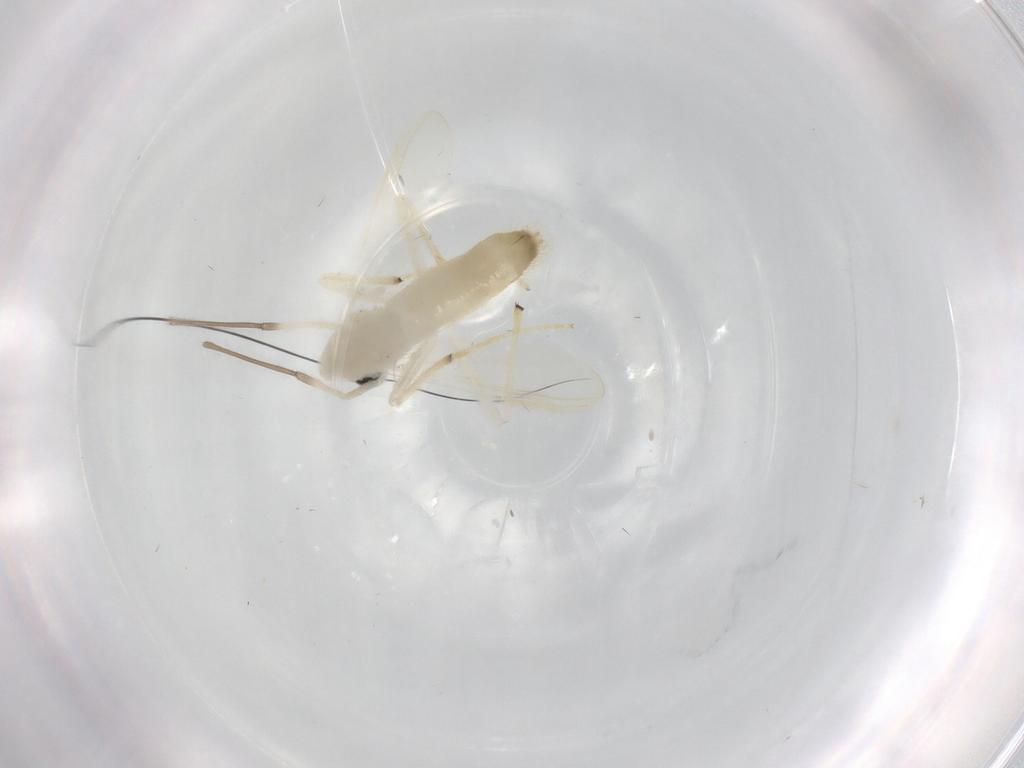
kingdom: Animalia
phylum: Arthropoda
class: Insecta
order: Diptera
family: Chironomidae
